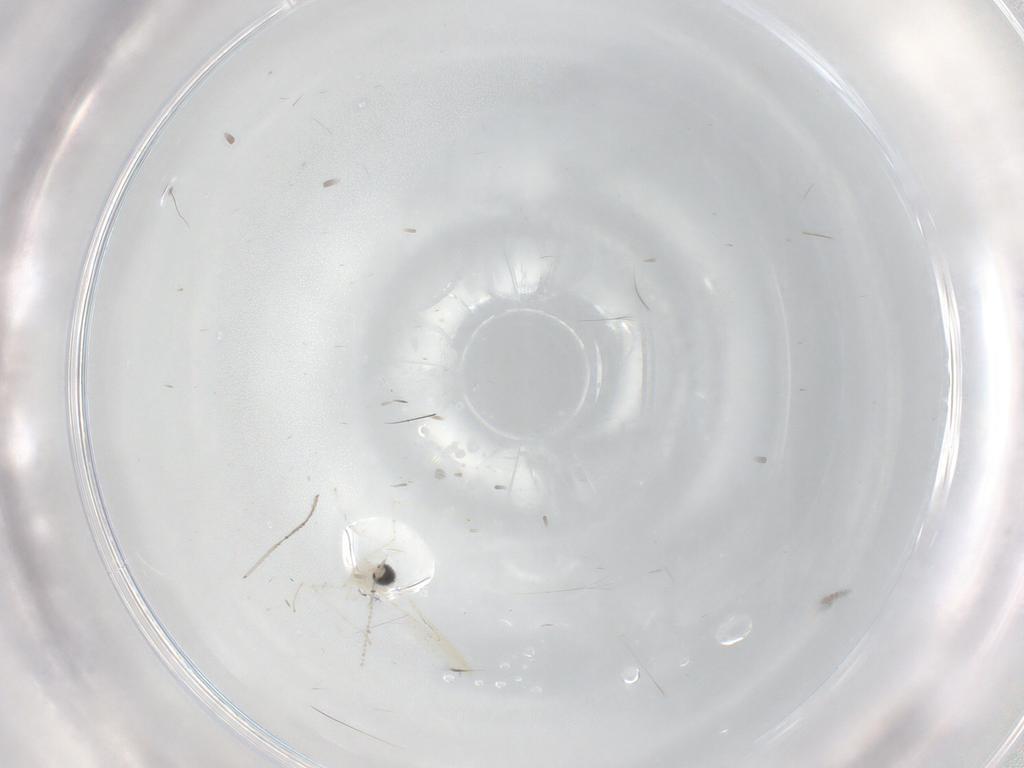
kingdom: Animalia
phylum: Arthropoda
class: Insecta
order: Diptera
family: Cecidomyiidae
